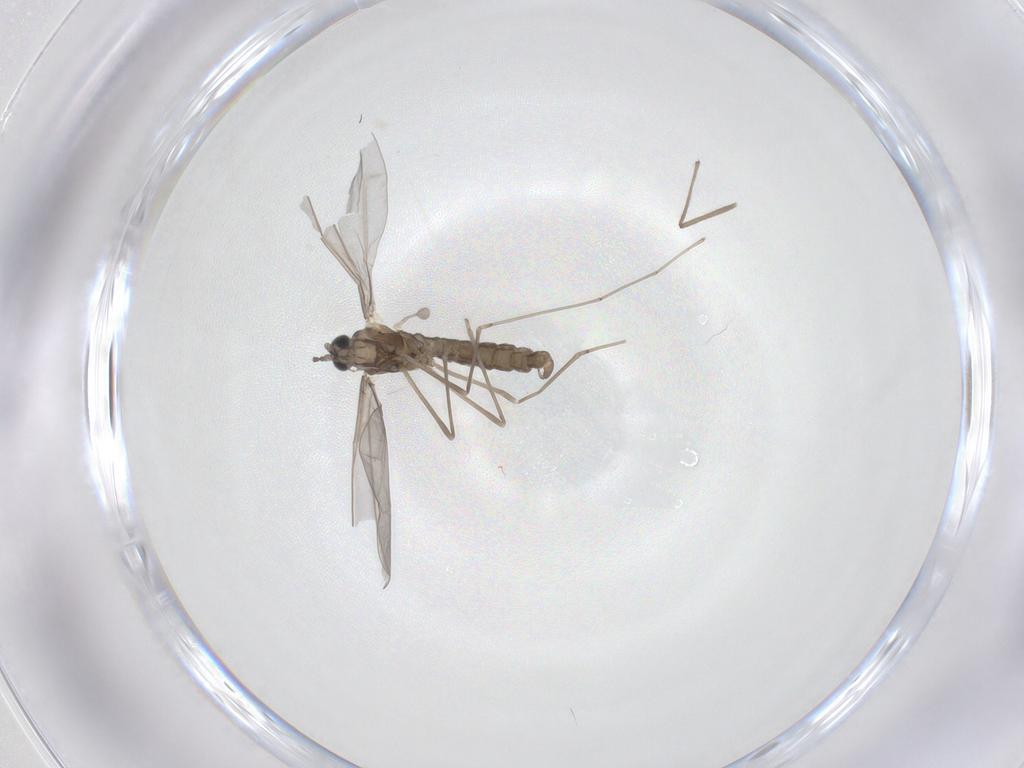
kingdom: Animalia
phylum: Arthropoda
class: Insecta
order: Diptera
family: Cecidomyiidae
